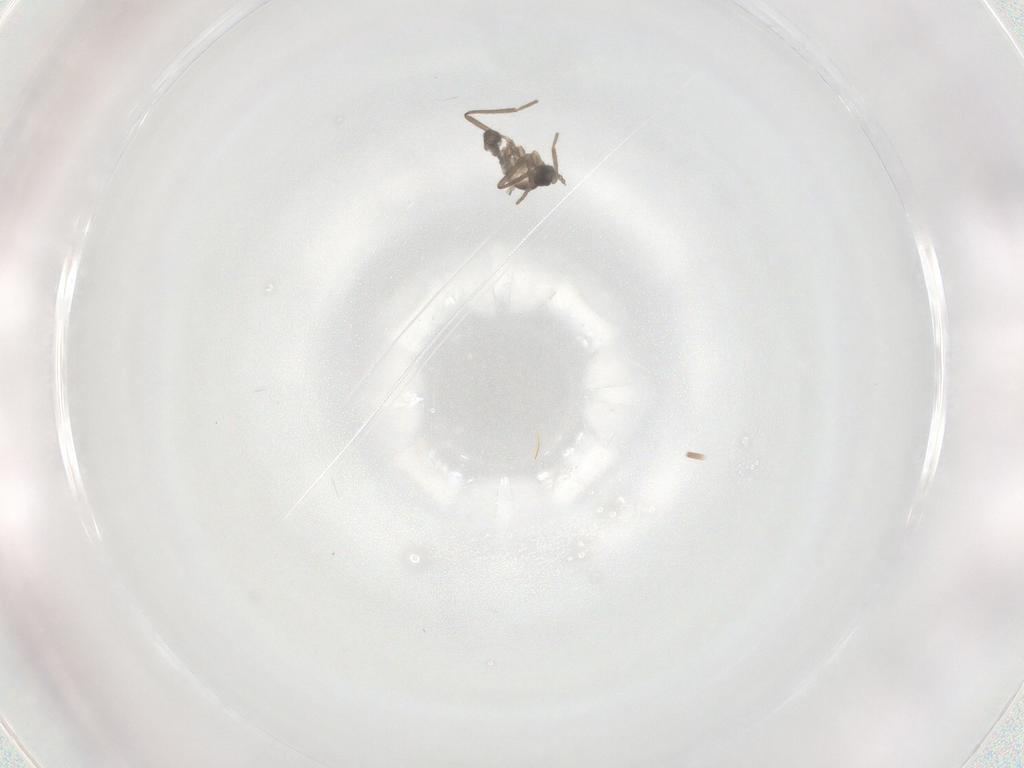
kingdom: Animalia
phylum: Arthropoda
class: Insecta
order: Diptera
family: Cecidomyiidae
